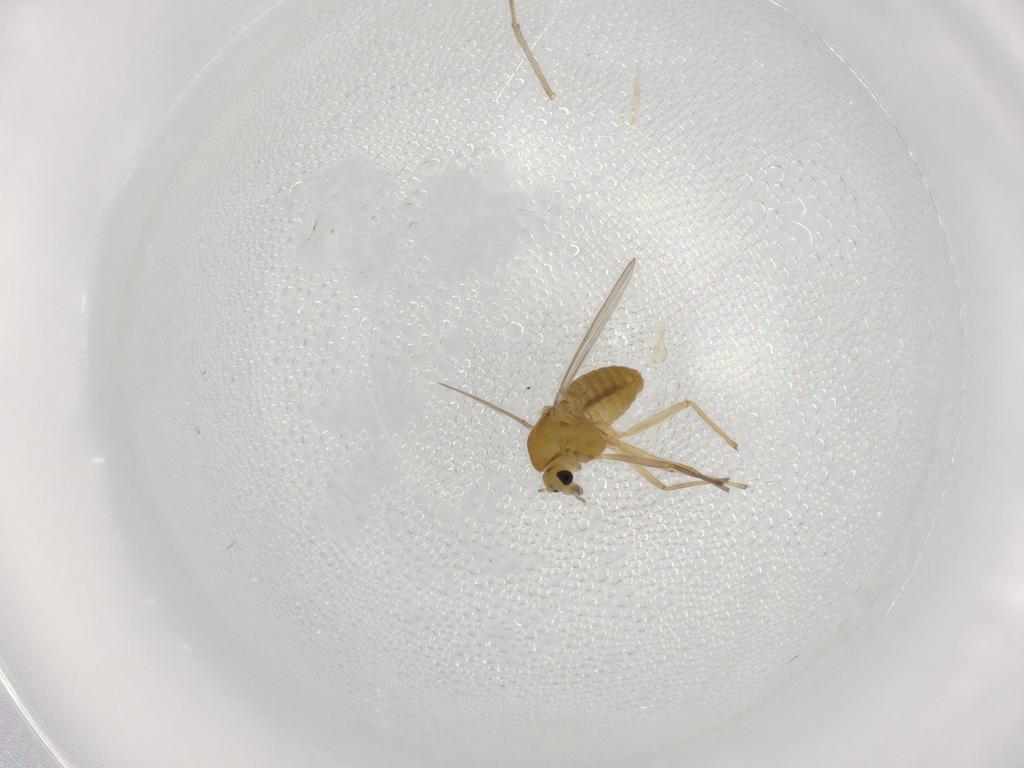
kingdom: Animalia
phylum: Arthropoda
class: Insecta
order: Diptera
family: Chironomidae
